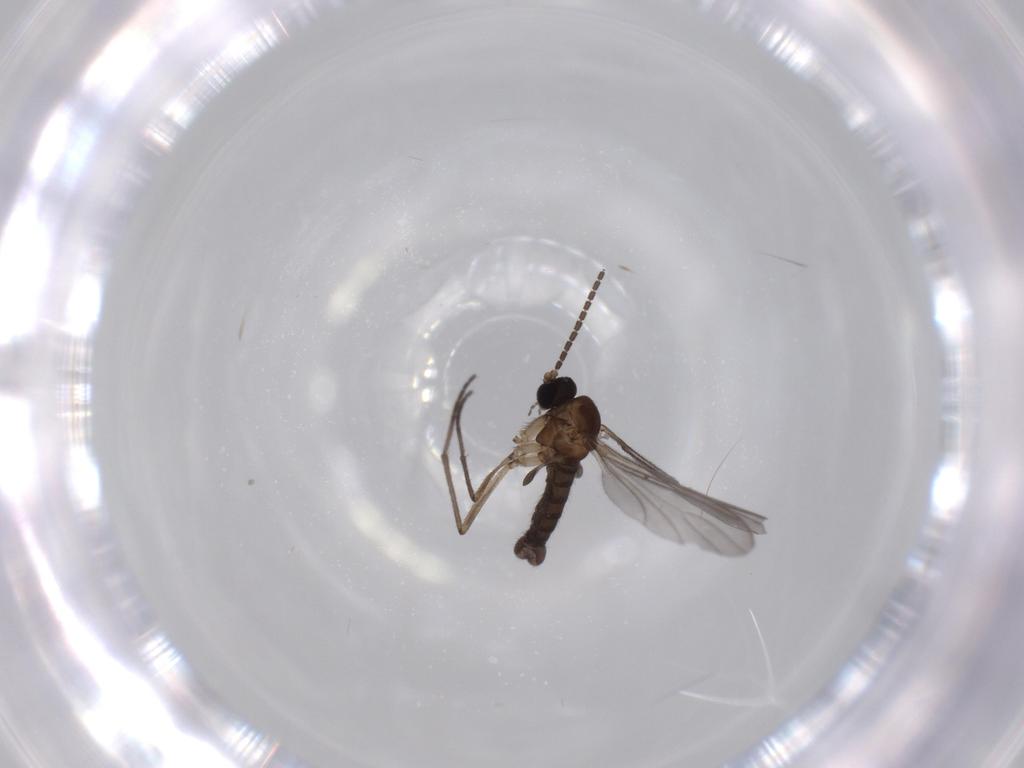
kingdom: Animalia
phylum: Arthropoda
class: Insecta
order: Diptera
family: Sciaridae
